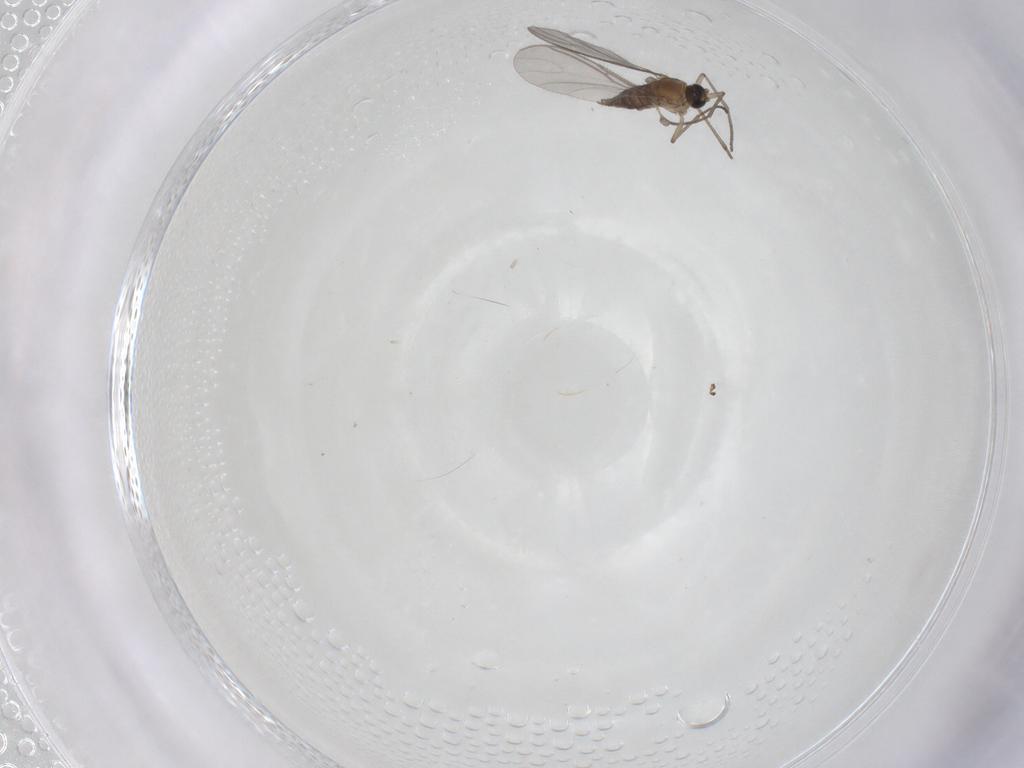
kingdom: Animalia
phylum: Arthropoda
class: Insecta
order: Diptera
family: Sciaridae
